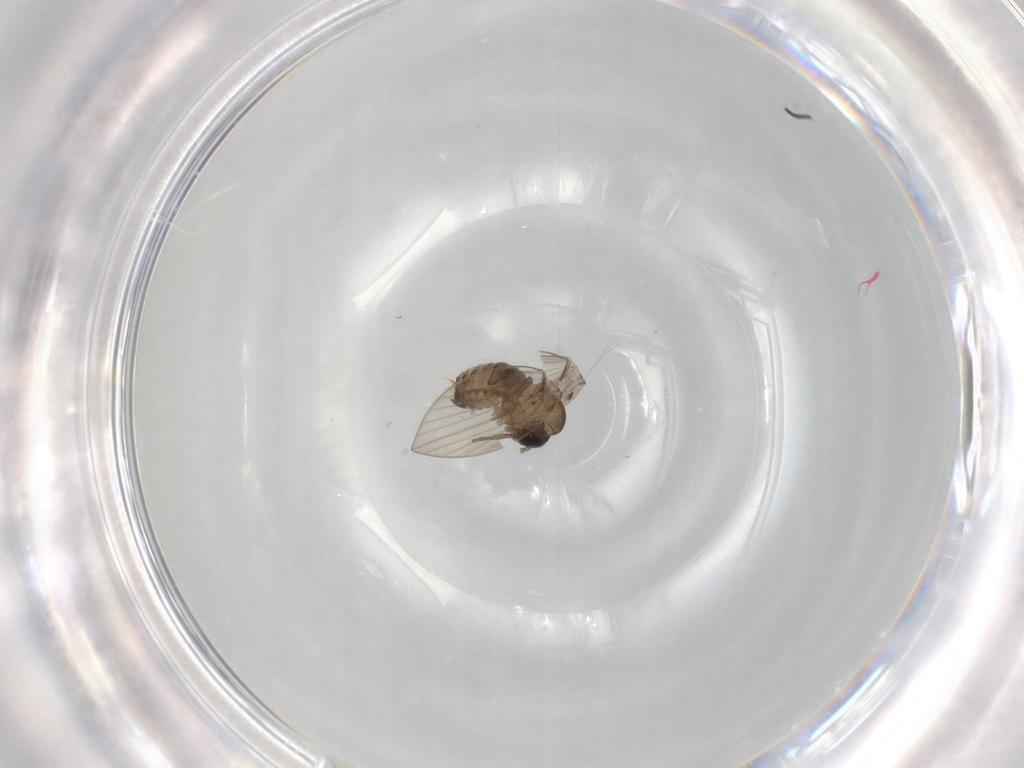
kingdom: Animalia
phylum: Arthropoda
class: Insecta
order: Diptera
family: Psychodidae
